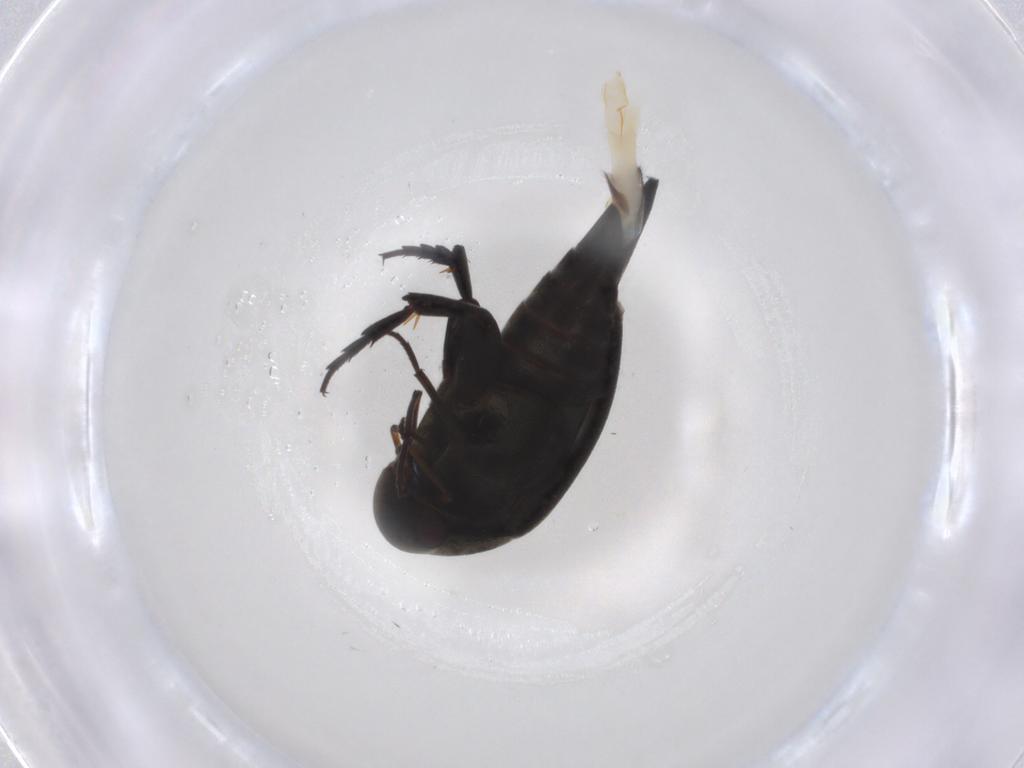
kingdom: Animalia
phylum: Arthropoda
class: Insecta
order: Coleoptera
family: Mordellidae
